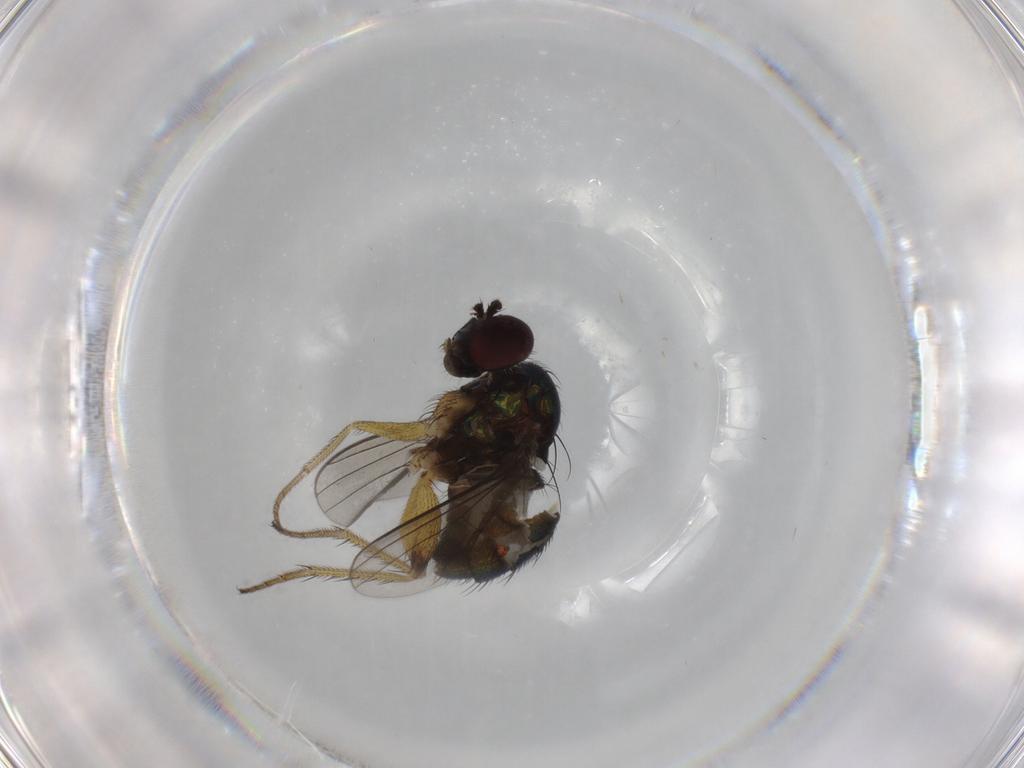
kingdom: Animalia
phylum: Arthropoda
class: Insecta
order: Diptera
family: Dolichopodidae
